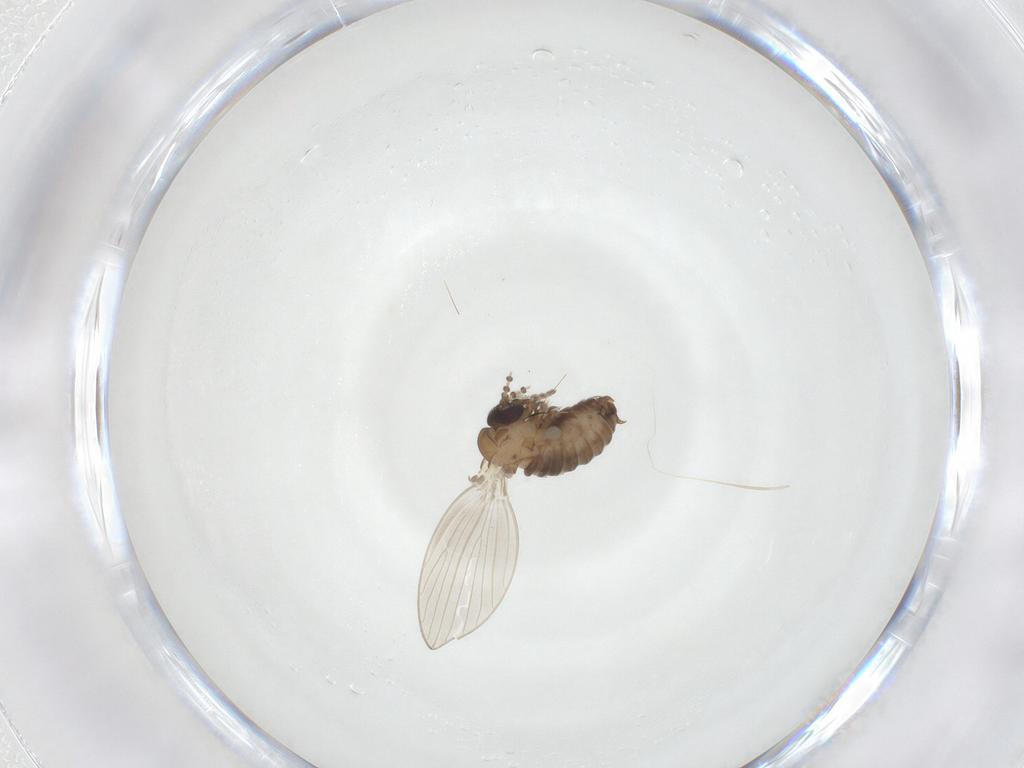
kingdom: Animalia
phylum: Arthropoda
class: Insecta
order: Diptera
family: Psychodidae
